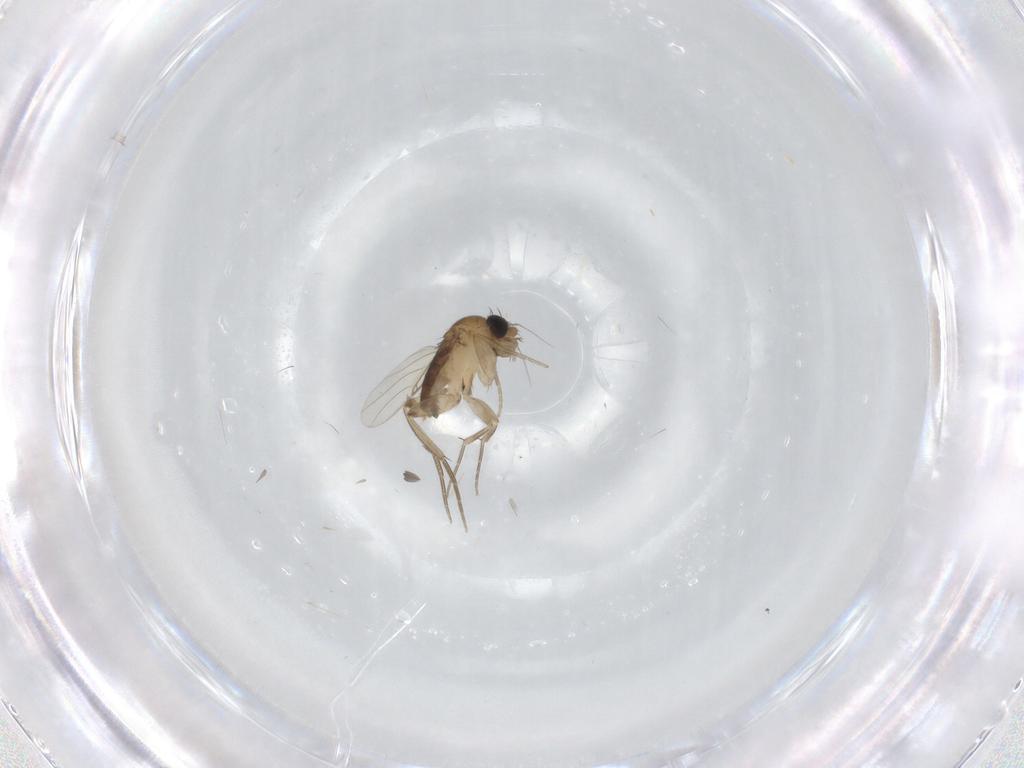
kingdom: Animalia
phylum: Arthropoda
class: Insecta
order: Diptera
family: Phoridae
